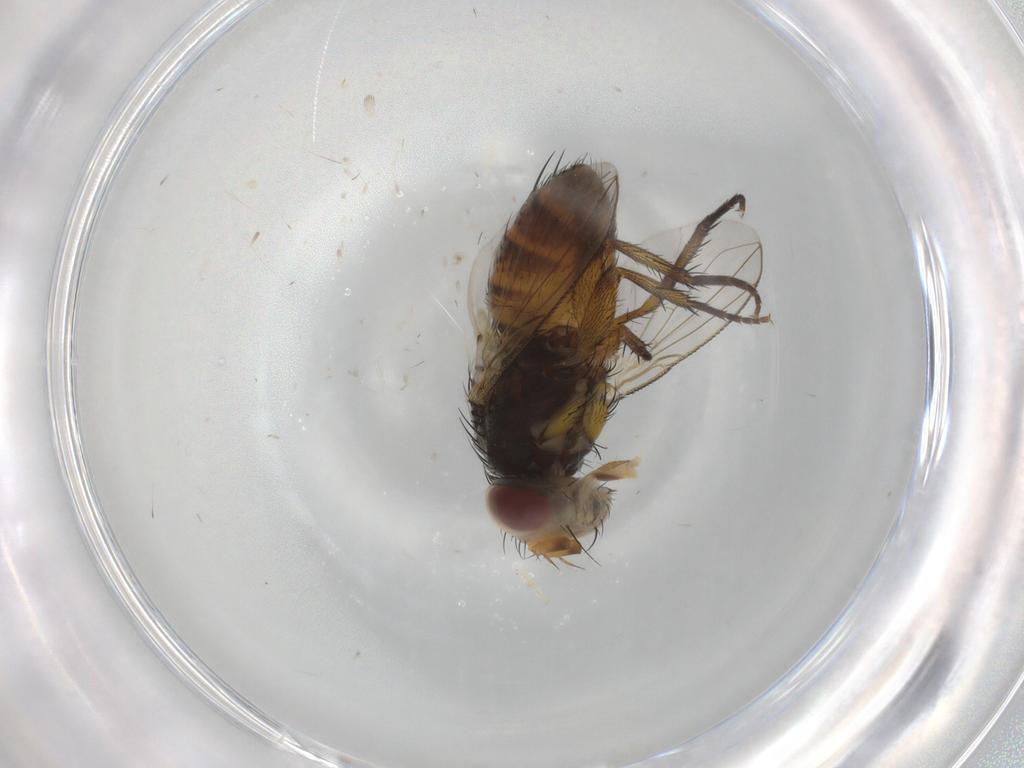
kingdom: Animalia
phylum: Arthropoda
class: Insecta
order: Diptera
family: Tachinidae
